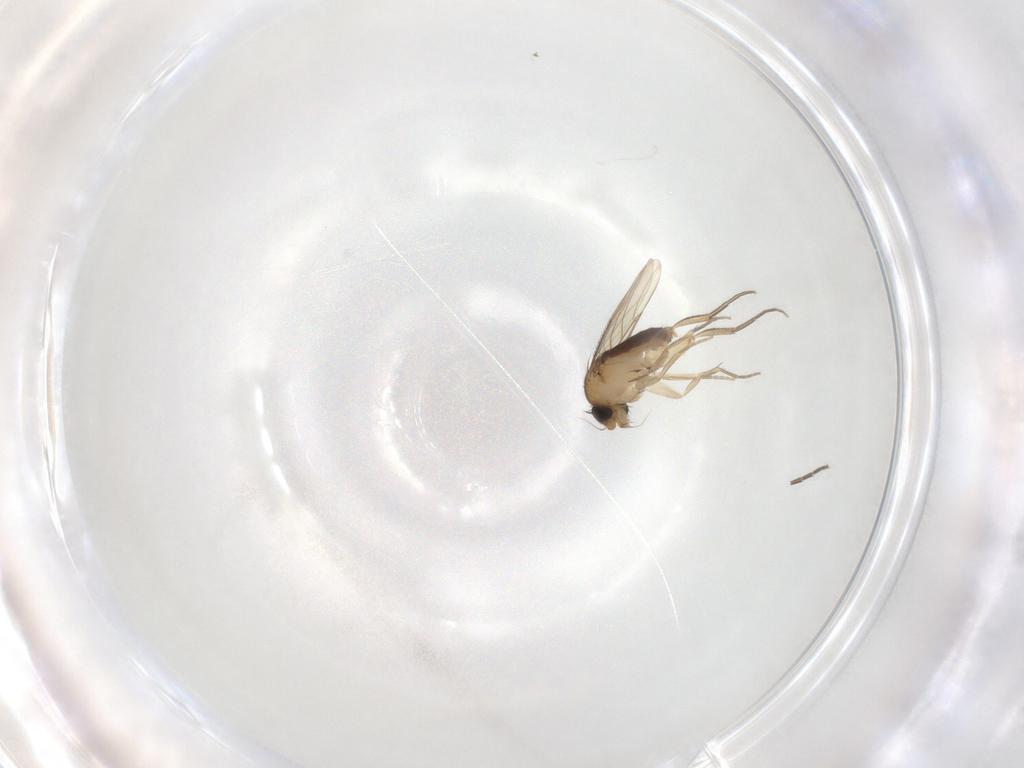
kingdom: Animalia
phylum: Arthropoda
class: Insecta
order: Diptera
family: Phoridae
